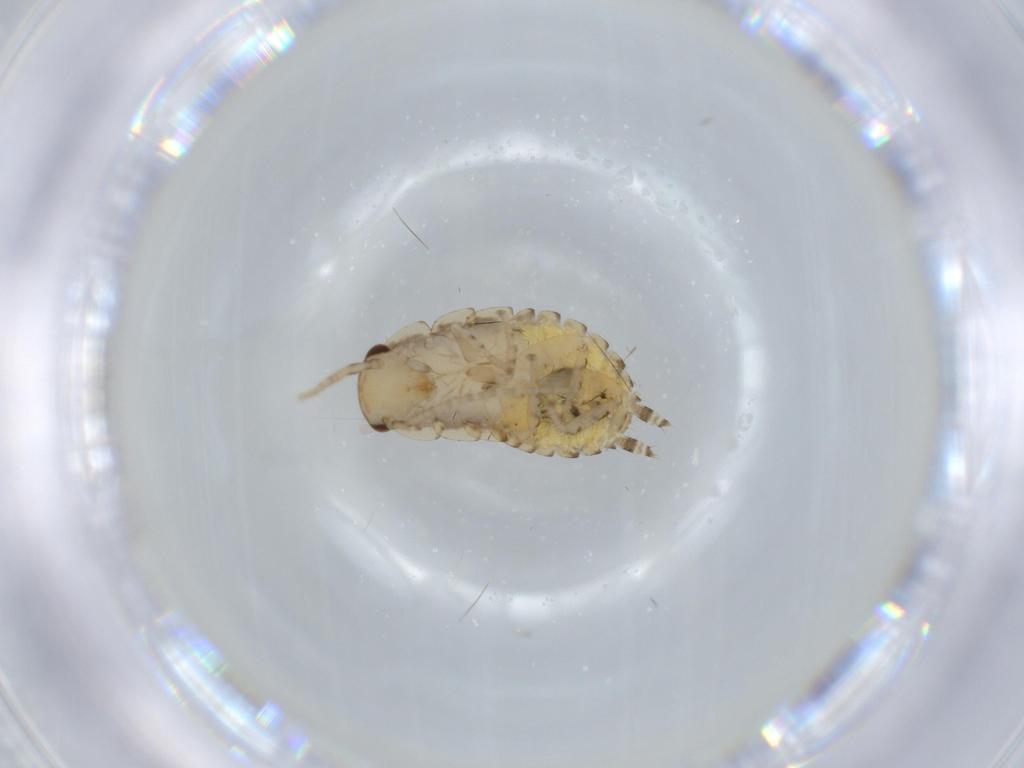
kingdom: Animalia
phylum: Arthropoda
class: Insecta
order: Blattodea
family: Ectobiidae
